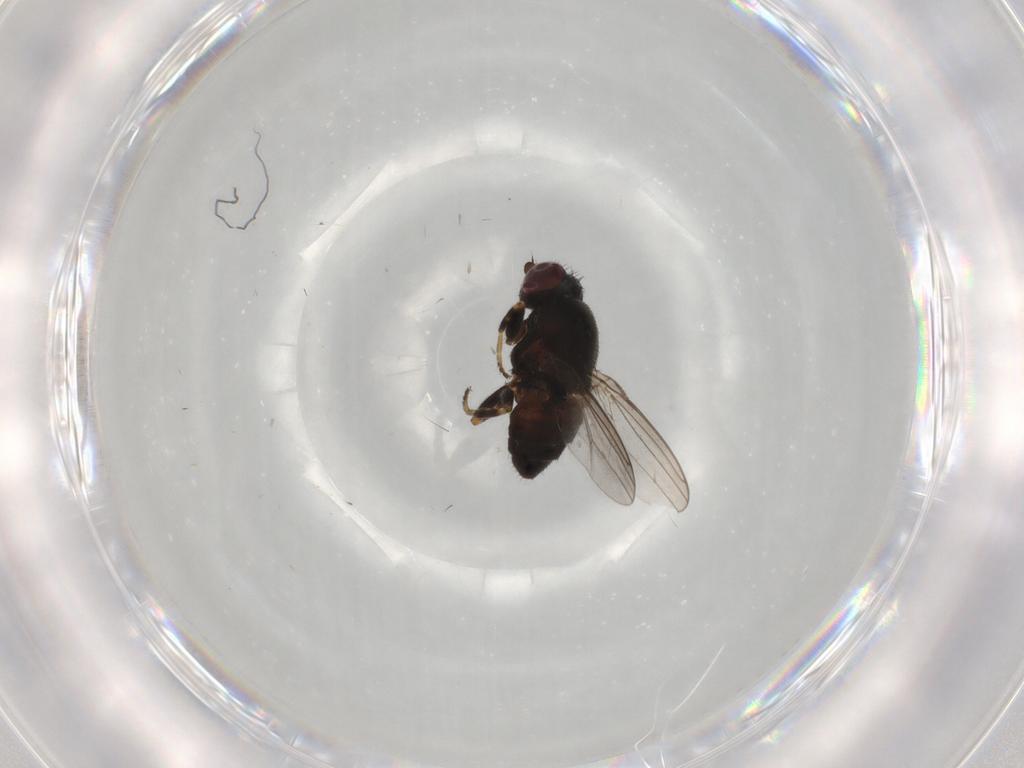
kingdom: Animalia
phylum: Arthropoda
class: Insecta
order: Diptera
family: Chloropidae
